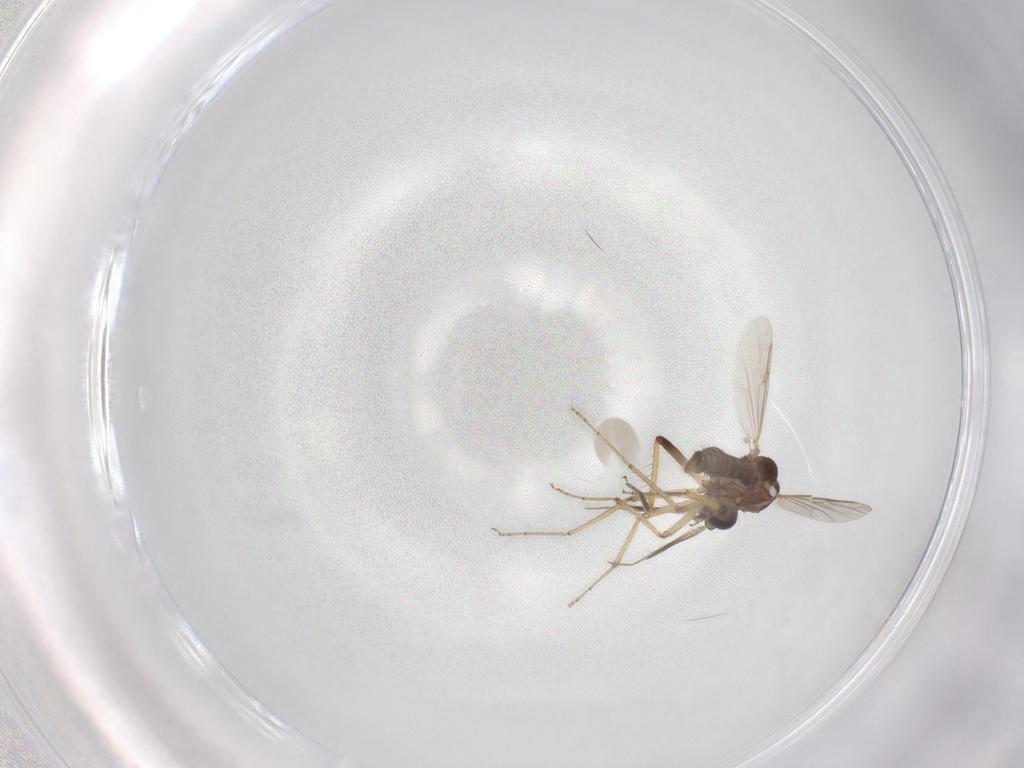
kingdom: Animalia
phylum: Arthropoda
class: Insecta
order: Diptera
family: Ceratopogonidae
